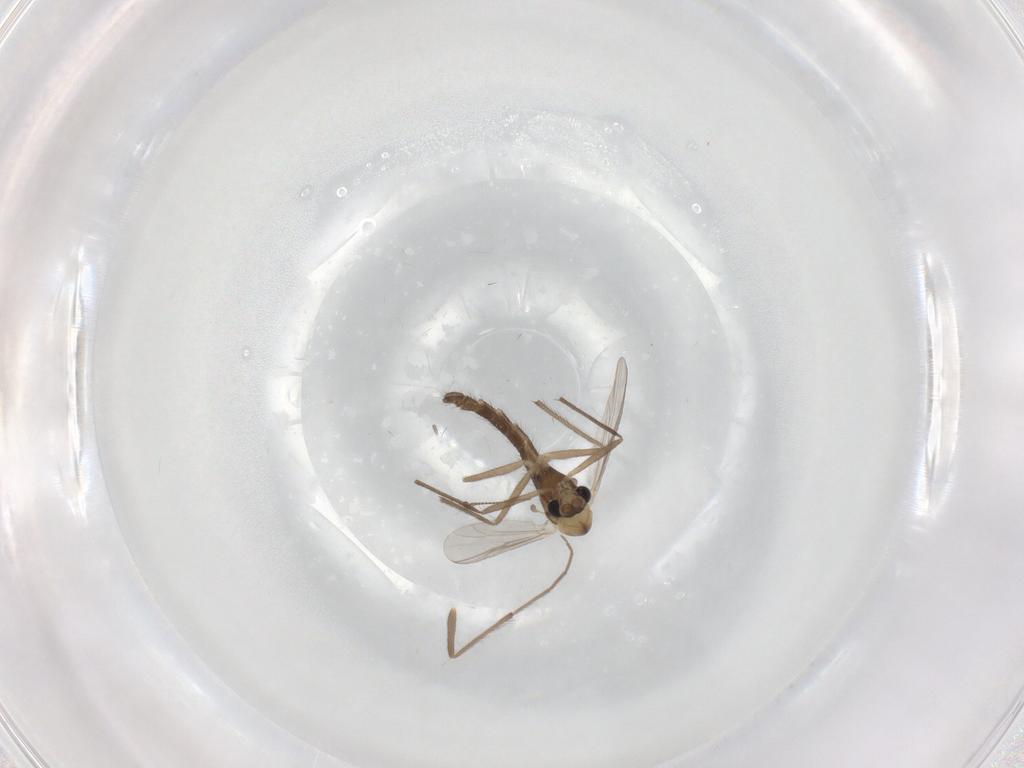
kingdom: Animalia
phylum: Arthropoda
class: Insecta
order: Diptera
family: Chironomidae
